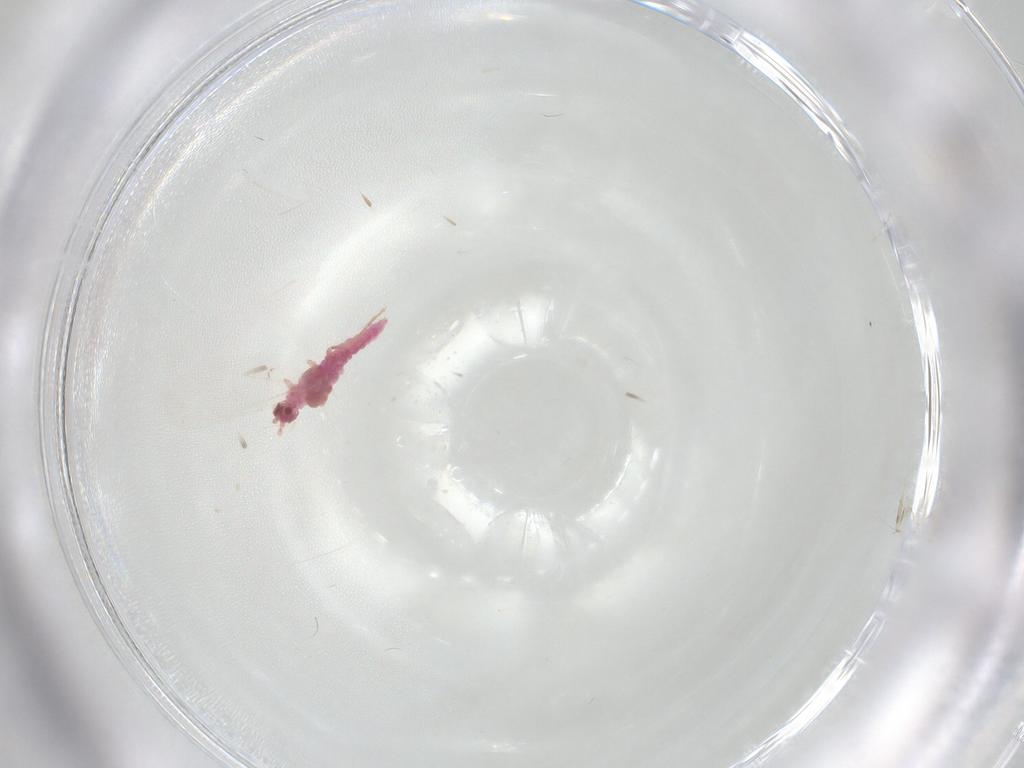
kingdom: Animalia
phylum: Arthropoda
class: Insecta
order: Diptera
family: Cecidomyiidae
